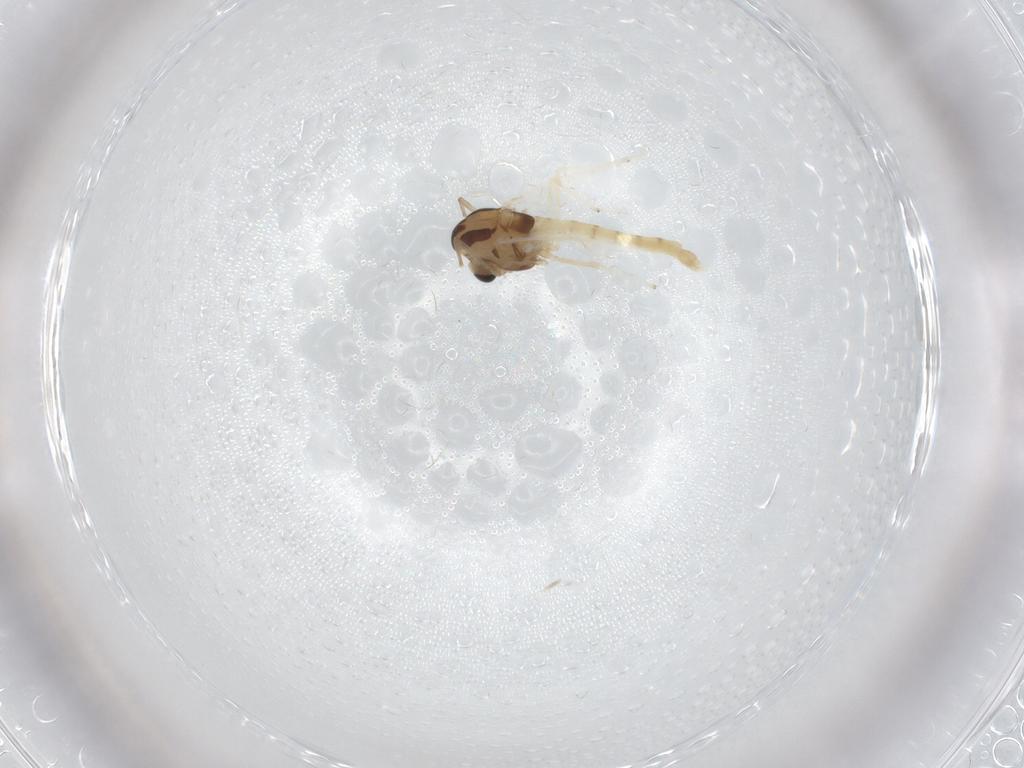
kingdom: Animalia
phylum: Arthropoda
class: Insecta
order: Diptera
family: Chironomidae
